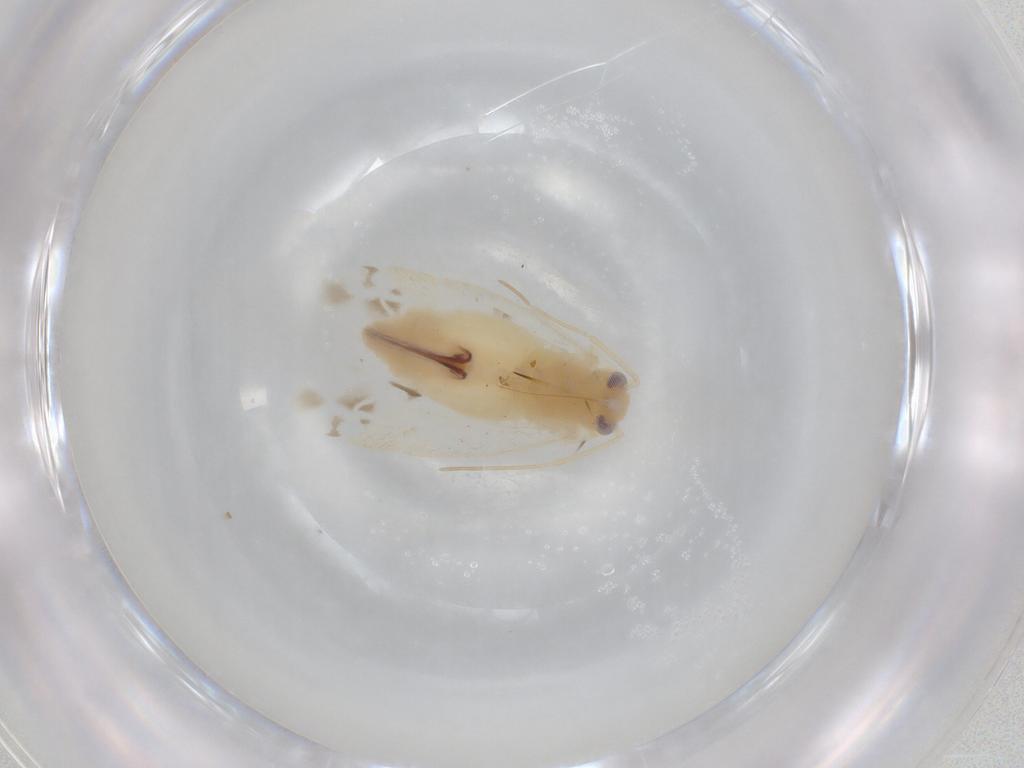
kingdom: Animalia
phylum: Arthropoda
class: Insecta
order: Hemiptera
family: Miridae
